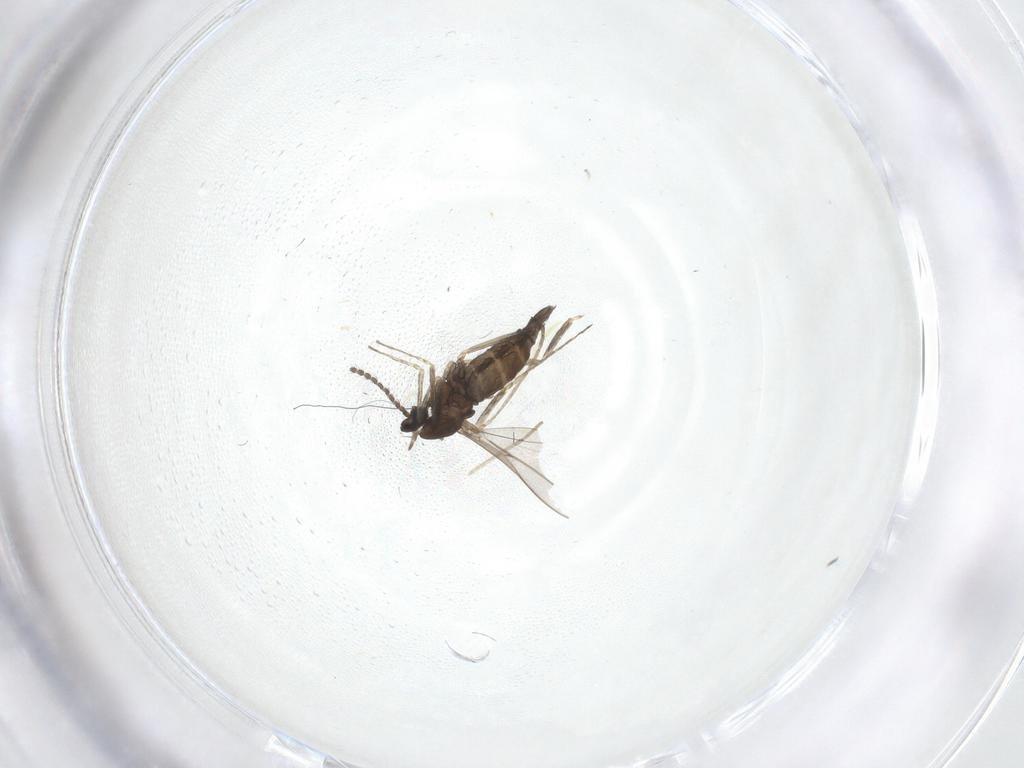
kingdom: Animalia
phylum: Arthropoda
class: Insecta
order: Diptera
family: Cecidomyiidae
